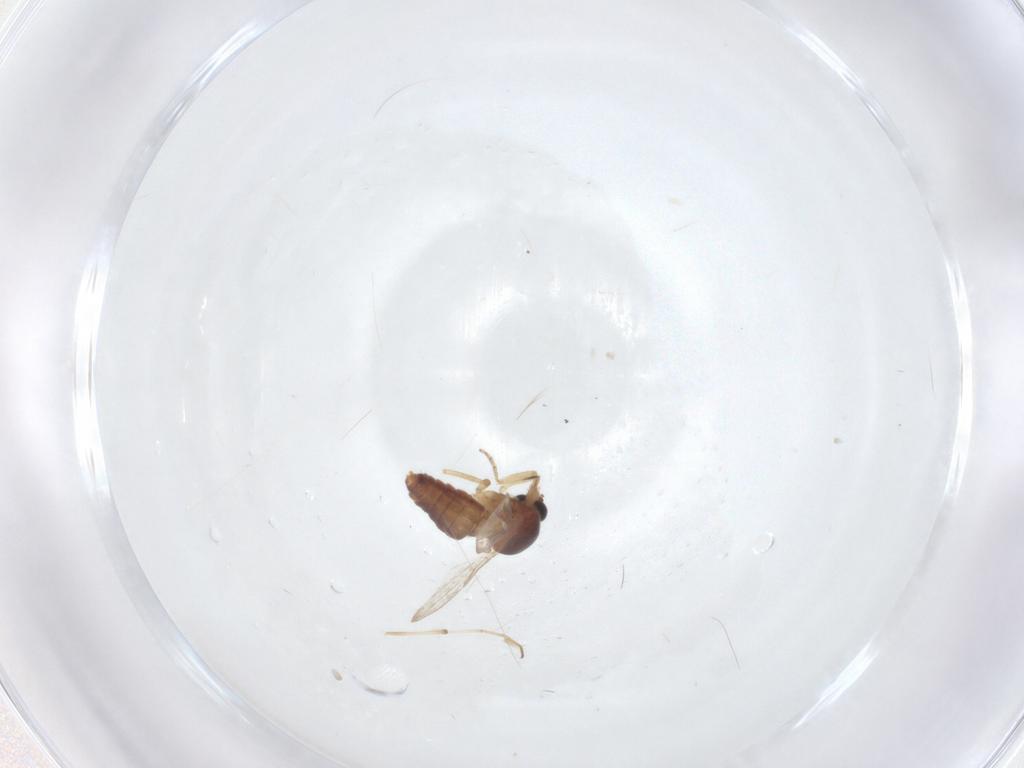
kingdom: Animalia
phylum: Arthropoda
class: Insecta
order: Diptera
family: Ceratopogonidae
